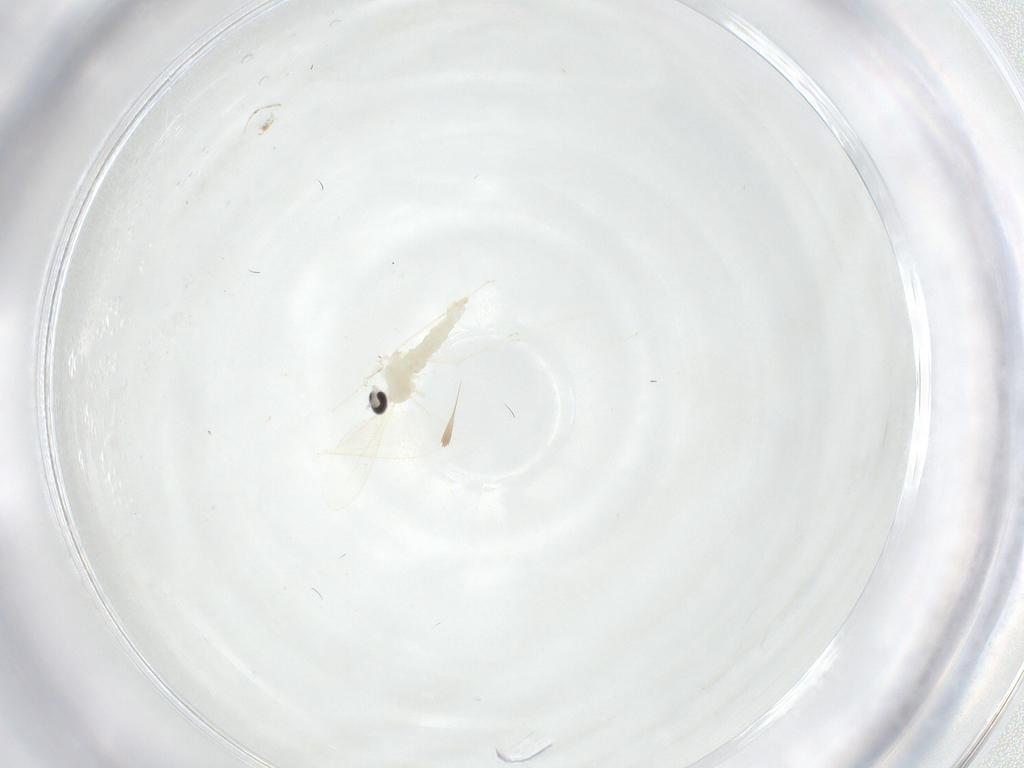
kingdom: Animalia
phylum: Arthropoda
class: Insecta
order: Diptera
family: Cecidomyiidae
